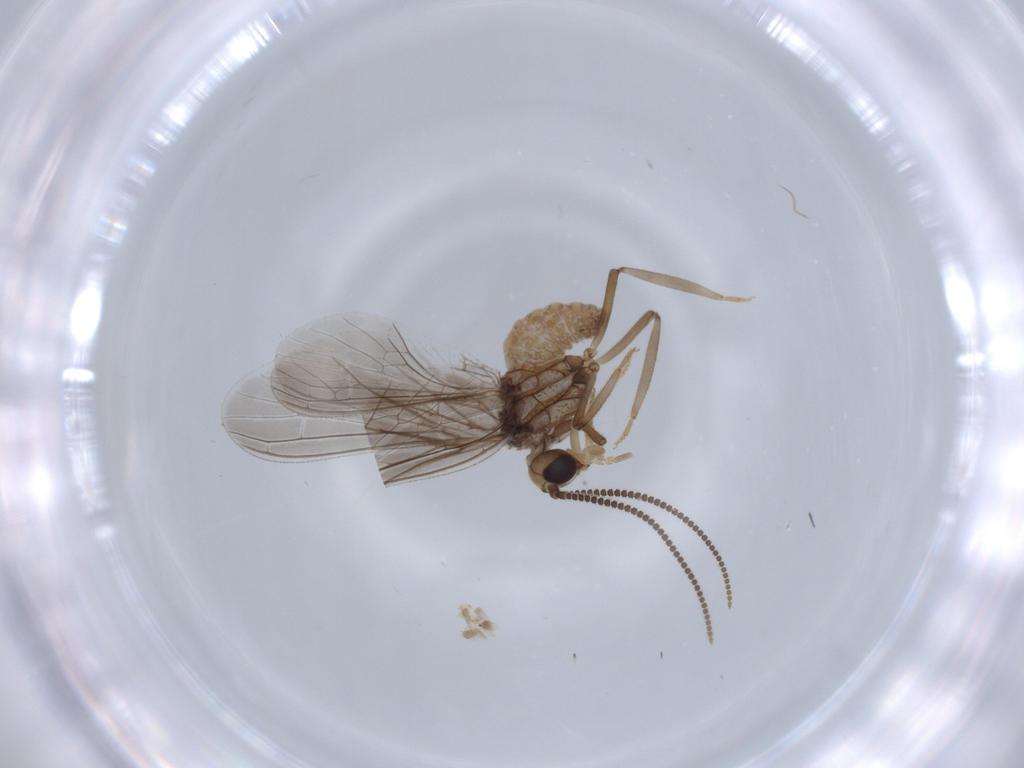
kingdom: Animalia
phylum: Arthropoda
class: Insecta
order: Neuroptera
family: Coniopterygidae
